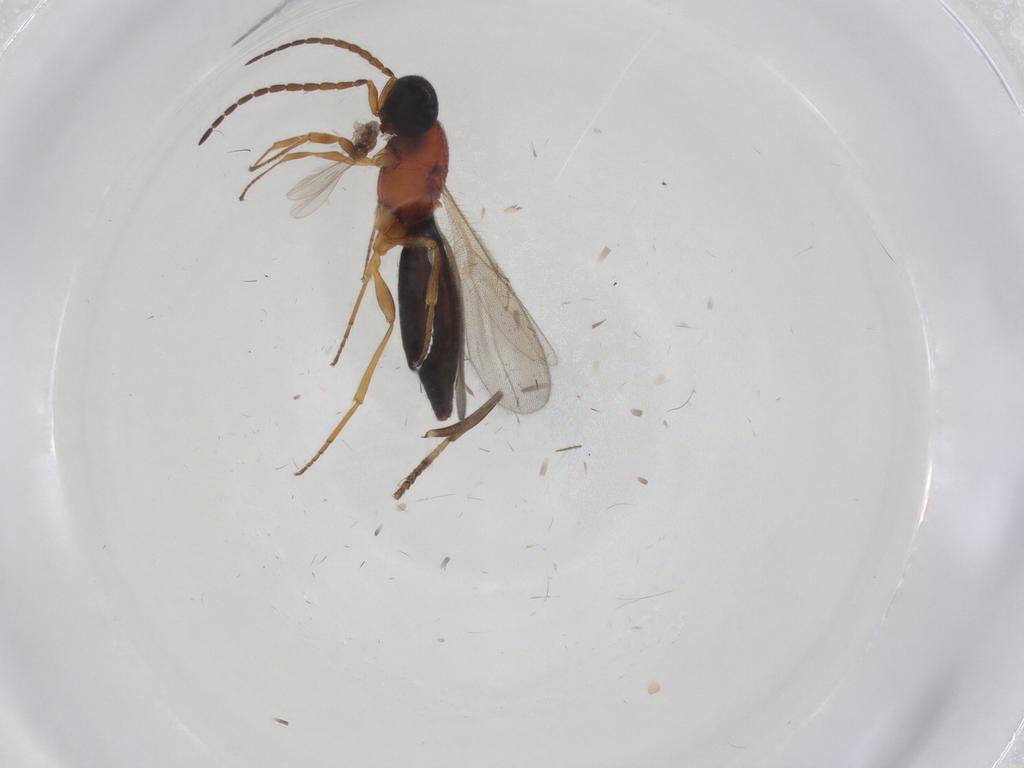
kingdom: Animalia
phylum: Arthropoda
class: Insecta
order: Diptera
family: Cecidomyiidae
